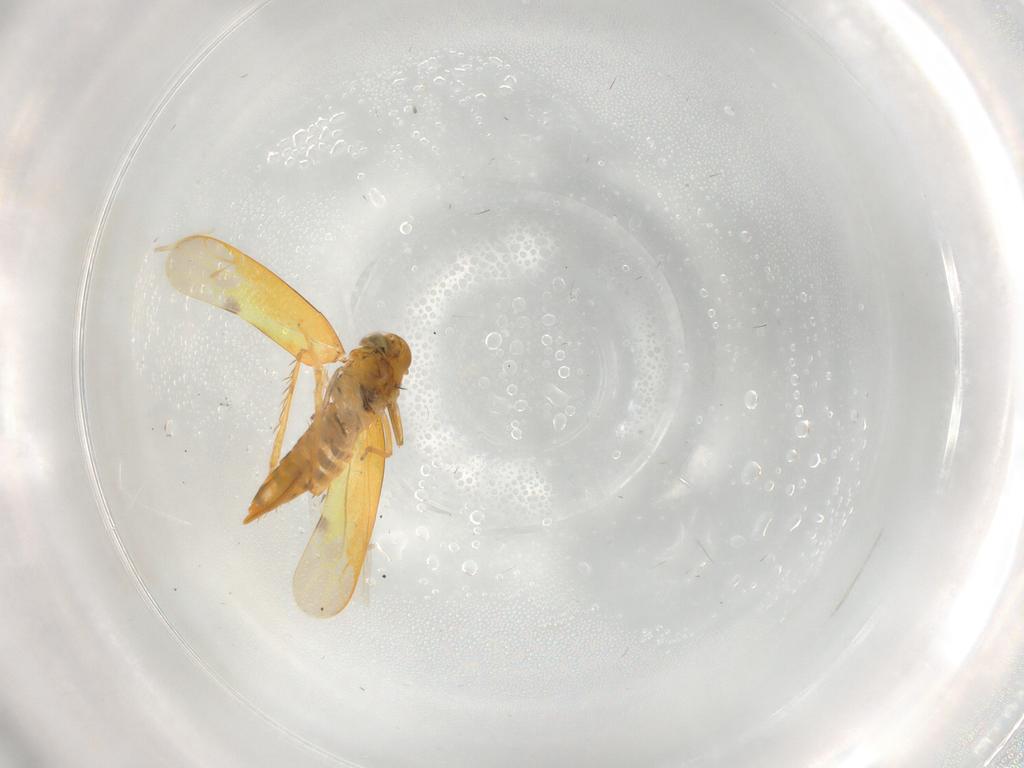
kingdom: Animalia
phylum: Arthropoda
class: Insecta
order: Hemiptera
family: Cicadellidae
